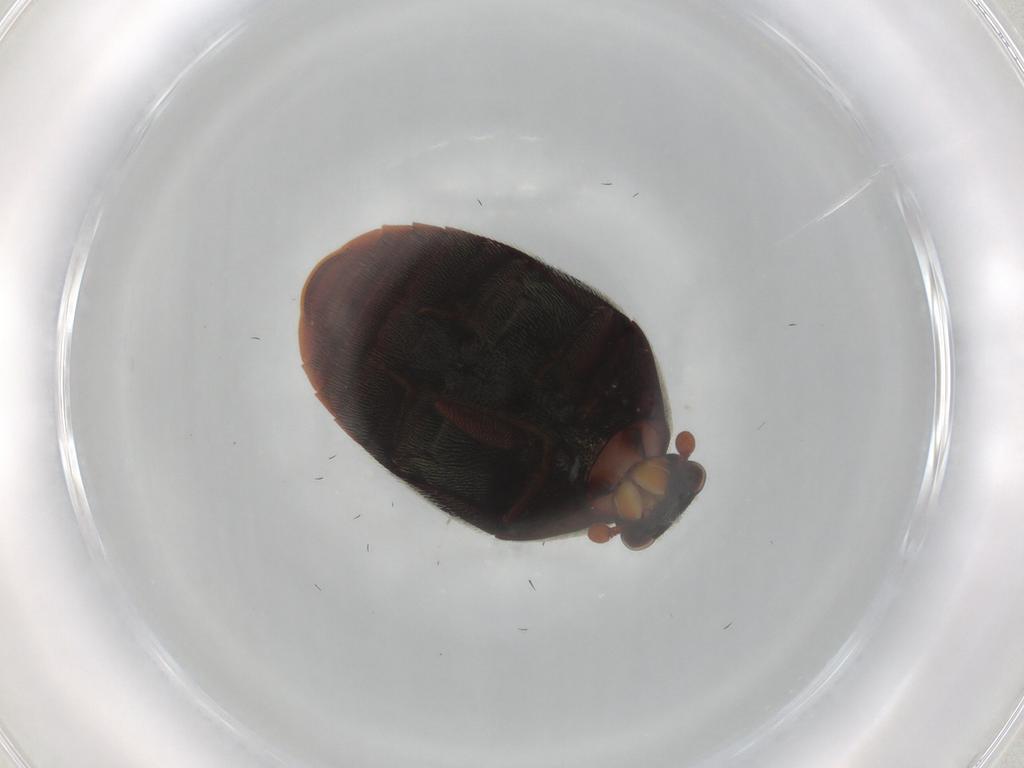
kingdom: Animalia
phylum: Arthropoda
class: Insecta
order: Coleoptera
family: Dermestidae
